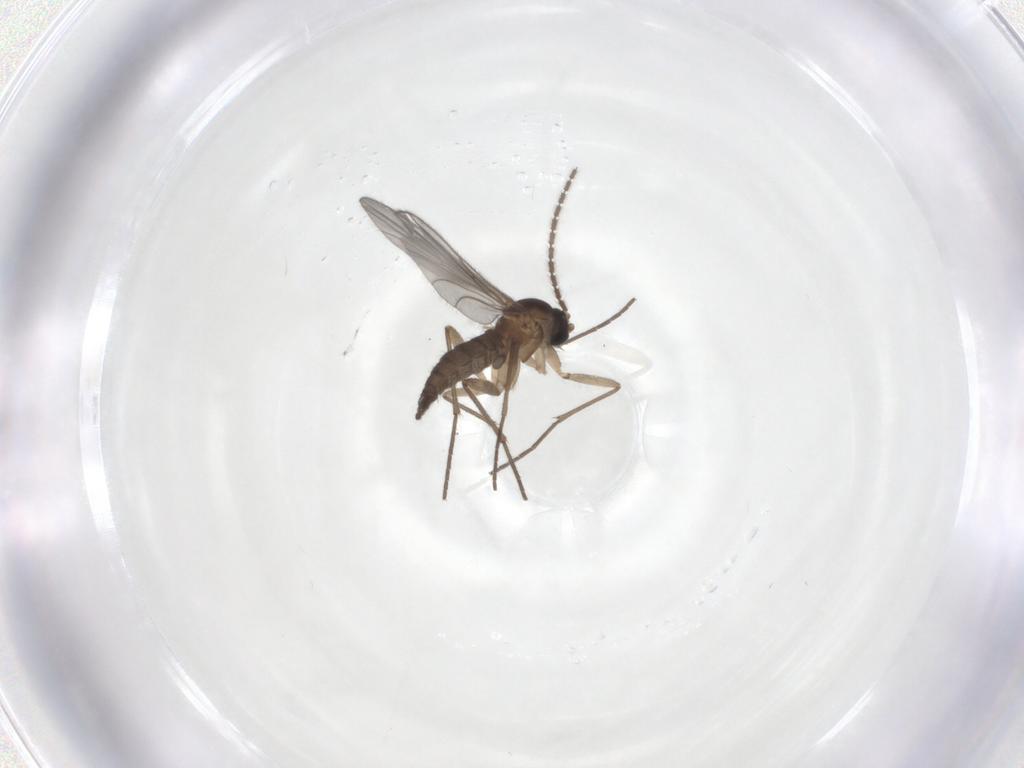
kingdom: Animalia
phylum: Arthropoda
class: Insecta
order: Diptera
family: Sciaridae
